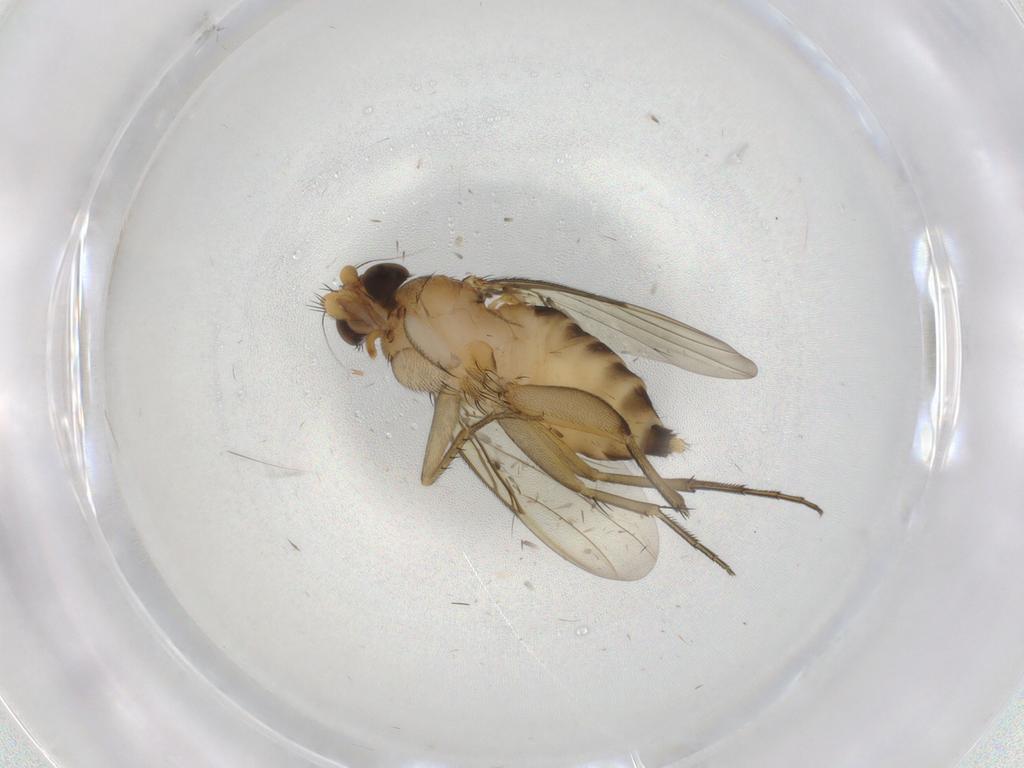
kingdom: Animalia
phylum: Arthropoda
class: Insecta
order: Diptera
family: Phoridae
